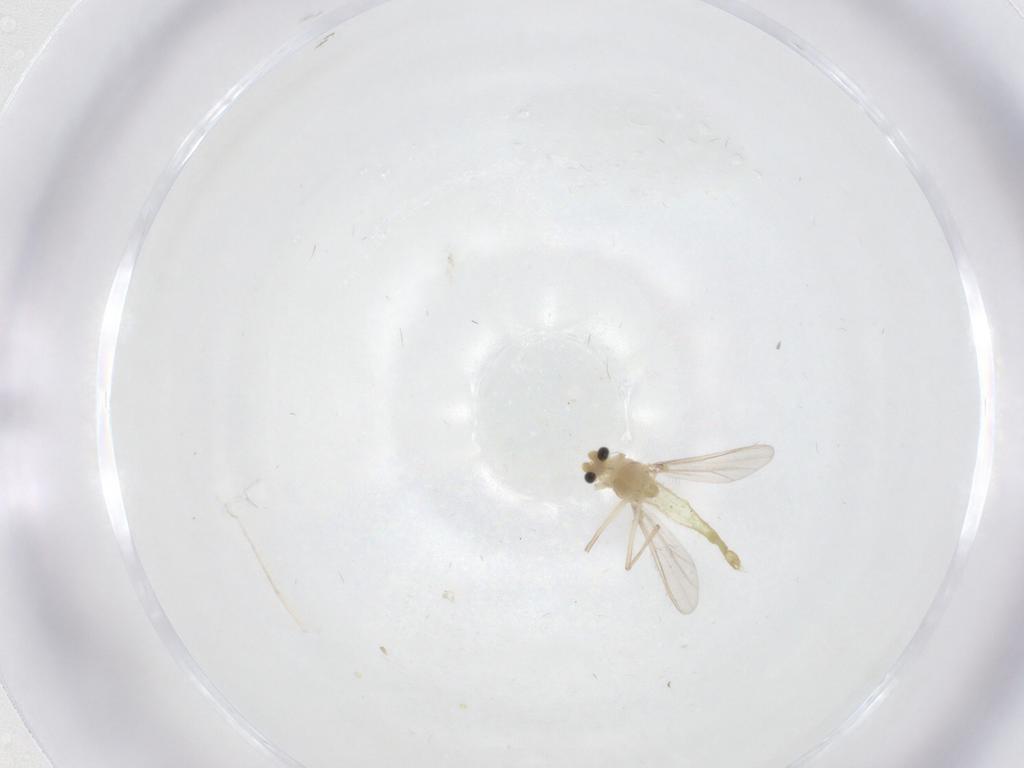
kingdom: Animalia
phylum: Arthropoda
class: Insecta
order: Diptera
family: Chironomidae
